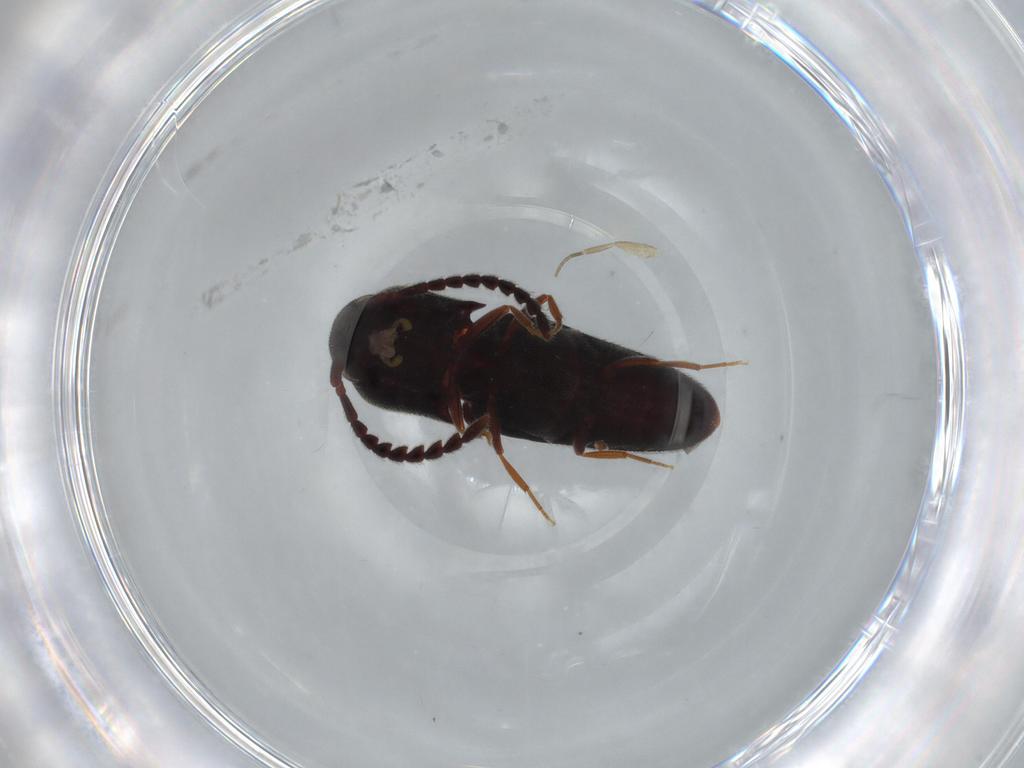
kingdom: Animalia
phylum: Arthropoda
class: Insecta
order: Coleoptera
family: Eucnemidae
